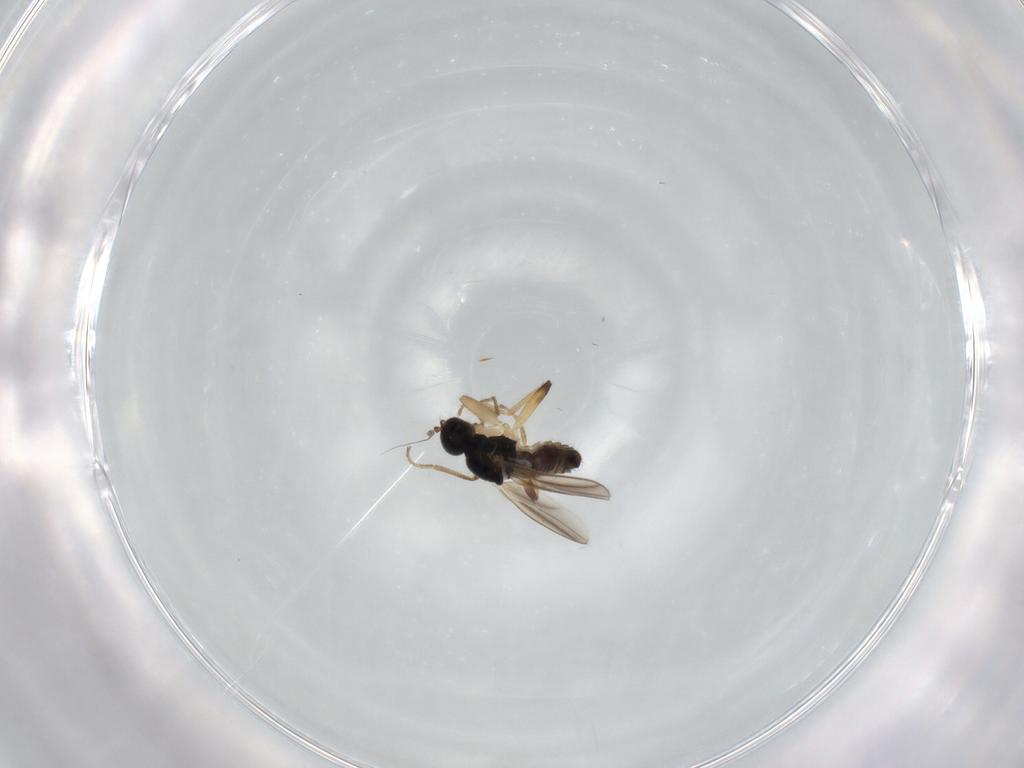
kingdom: Animalia
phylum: Arthropoda
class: Insecta
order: Diptera
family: Hybotidae
